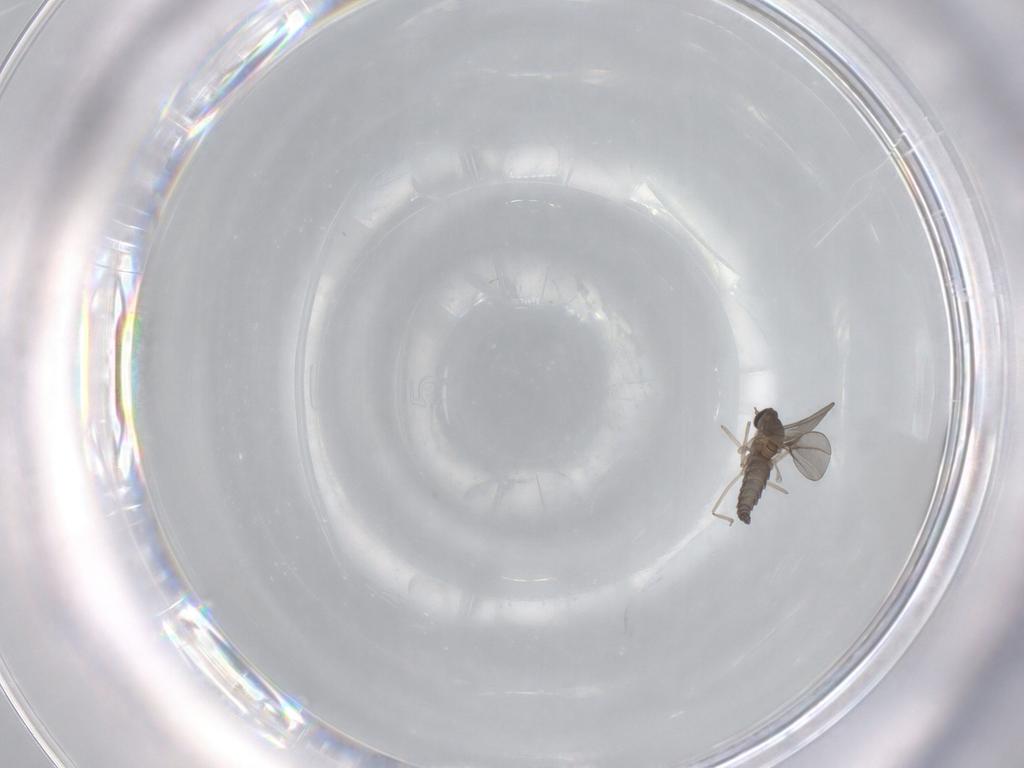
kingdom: Animalia
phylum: Arthropoda
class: Insecta
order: Diptera
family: Cecidomyiidae
